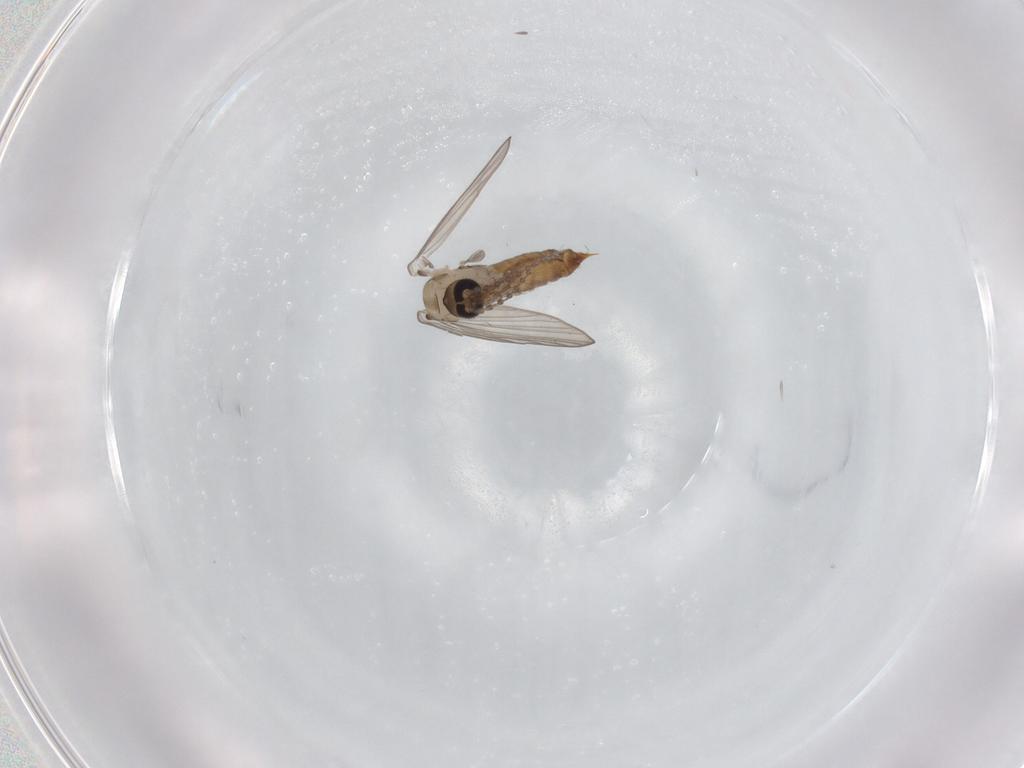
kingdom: Animalia
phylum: Arthropoda
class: Insecta
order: Diptera
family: Psychodidae
